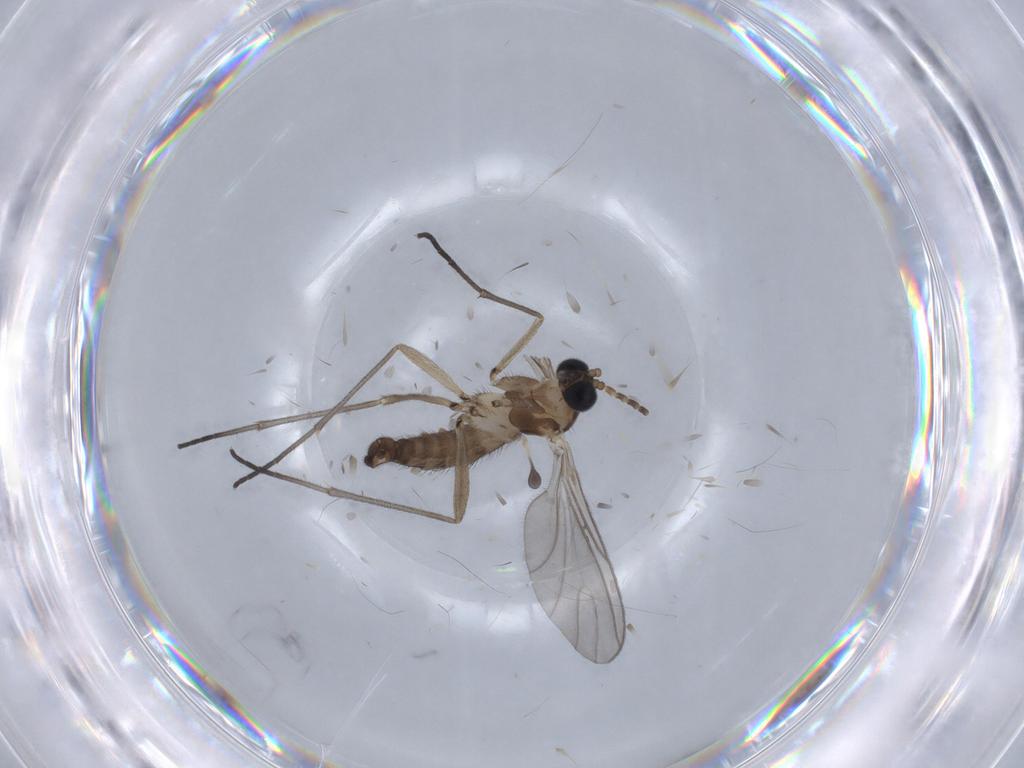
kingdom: Animalia
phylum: Arthropoda
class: Insecta
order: Diptera
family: Sciaridae
